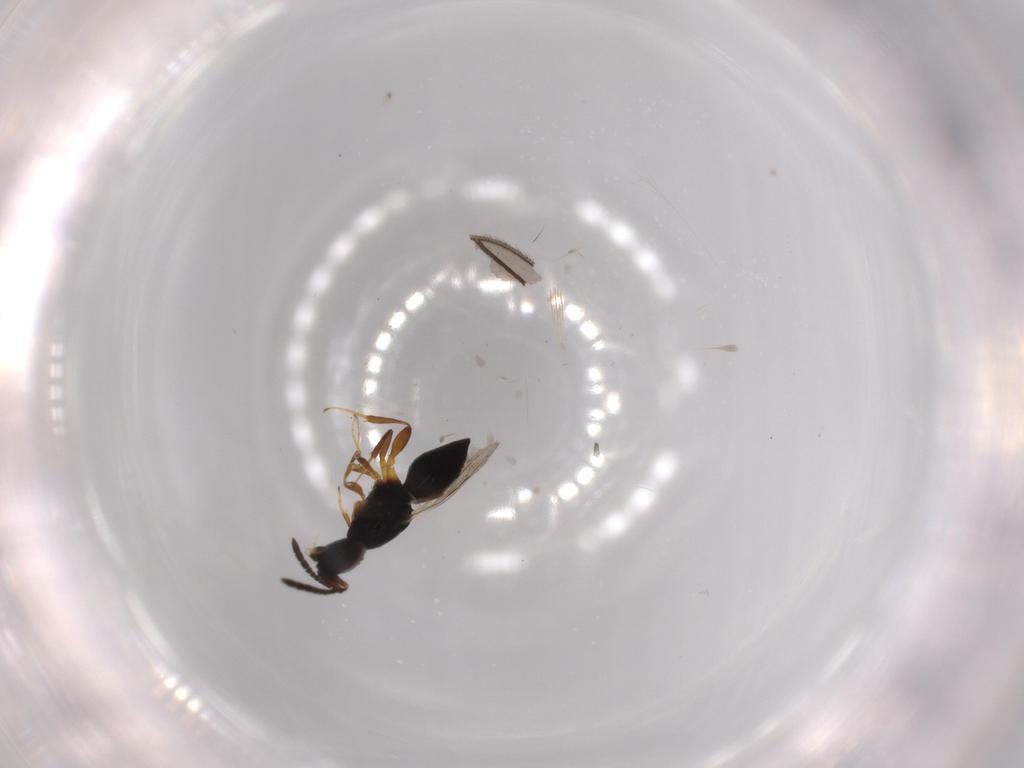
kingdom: Animalia
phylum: Arthropoda
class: Insecta
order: Hymenoptera
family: Ceraphronidae
